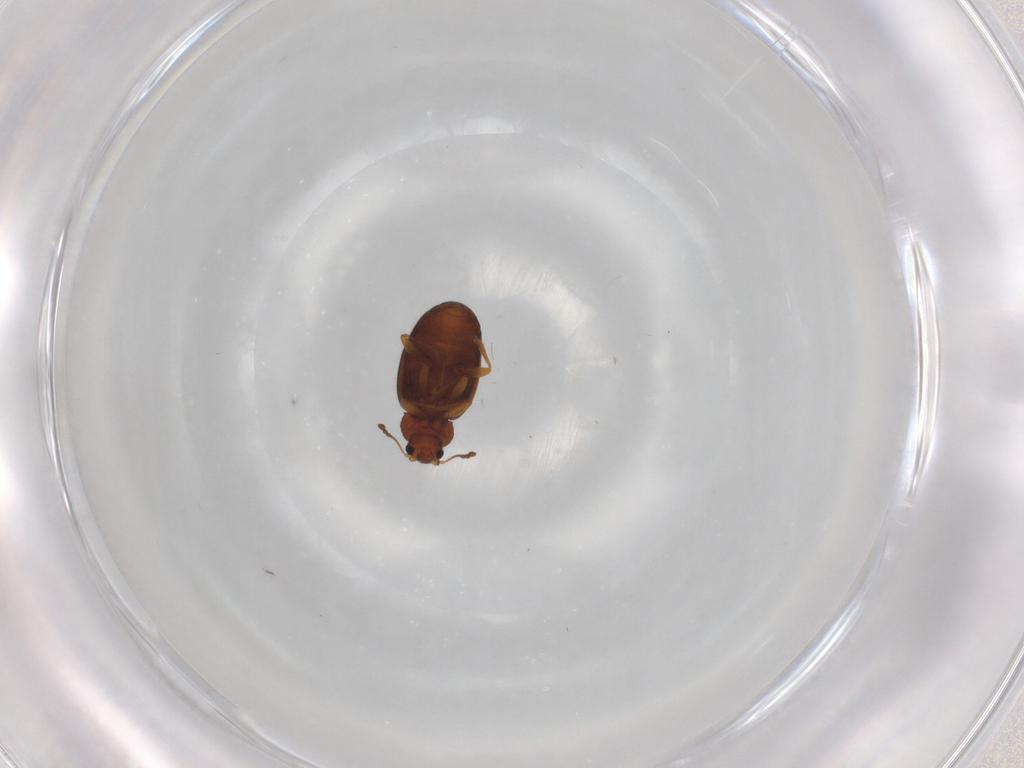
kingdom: Animalia
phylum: Arthropoda
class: Insecta
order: Coleoptera
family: Latridiidae
